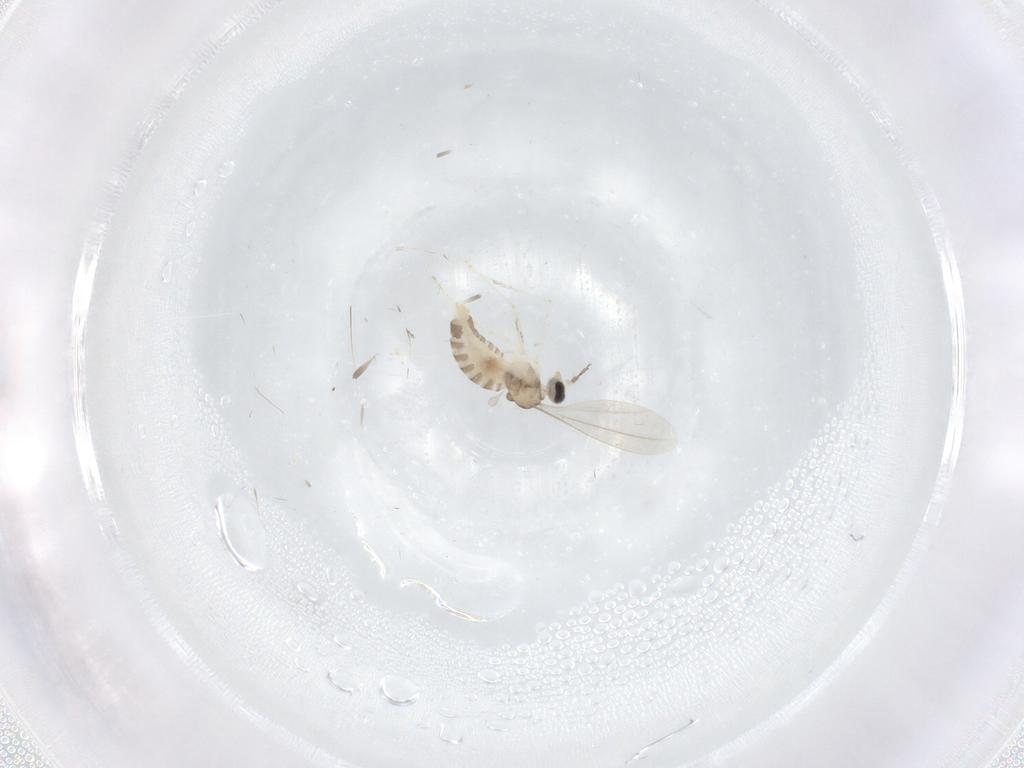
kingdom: Animalia
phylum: Arthropoda
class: Insecta
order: Diptera
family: Cecidomyiidae
